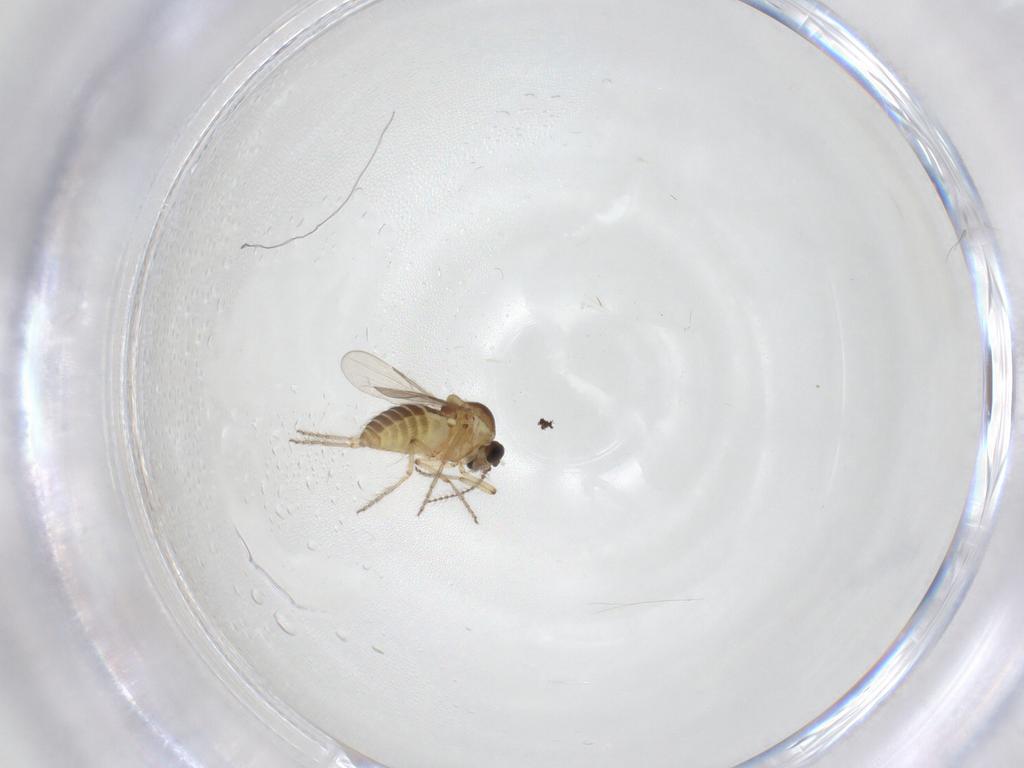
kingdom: Animalia
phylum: Arthropoda
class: Insecta
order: Diptera
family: Ceratopogonidae
